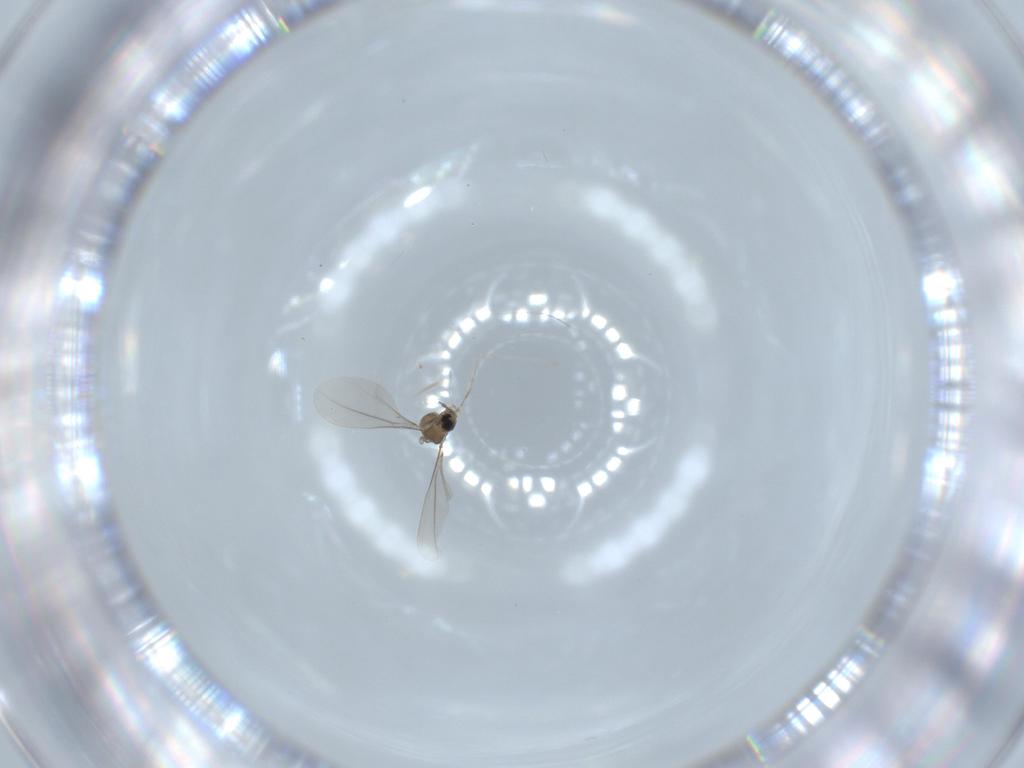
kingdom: Animalia
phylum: Arthropoda
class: Insecta
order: Diptera
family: Cecidomyiidae
